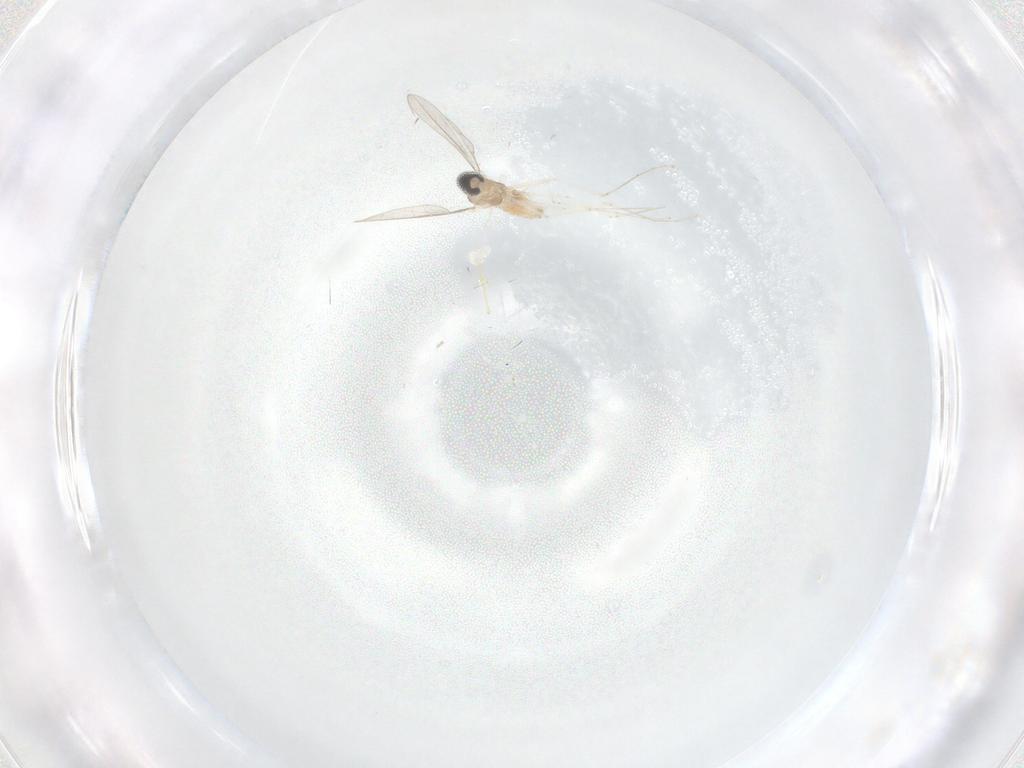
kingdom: Animalia
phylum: Arthropoda
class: Insecta
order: Diptera
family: Phoridae
